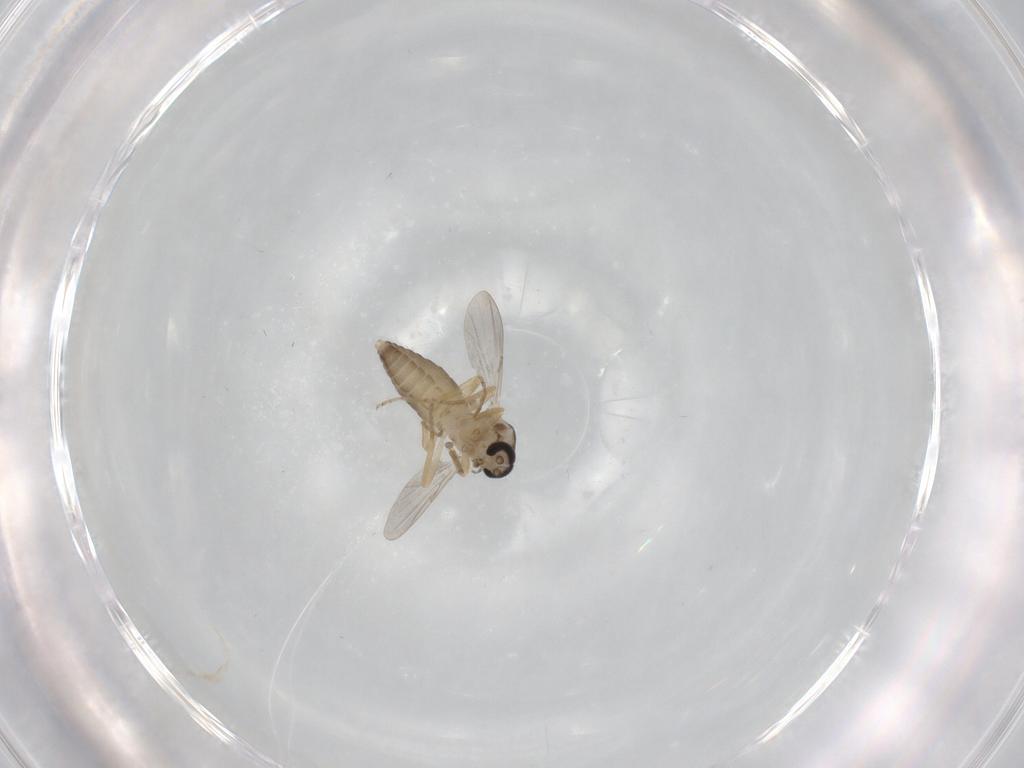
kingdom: Animalia
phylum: Arthropoda
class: Insecta
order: Diptera
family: Ceratopogonidae
